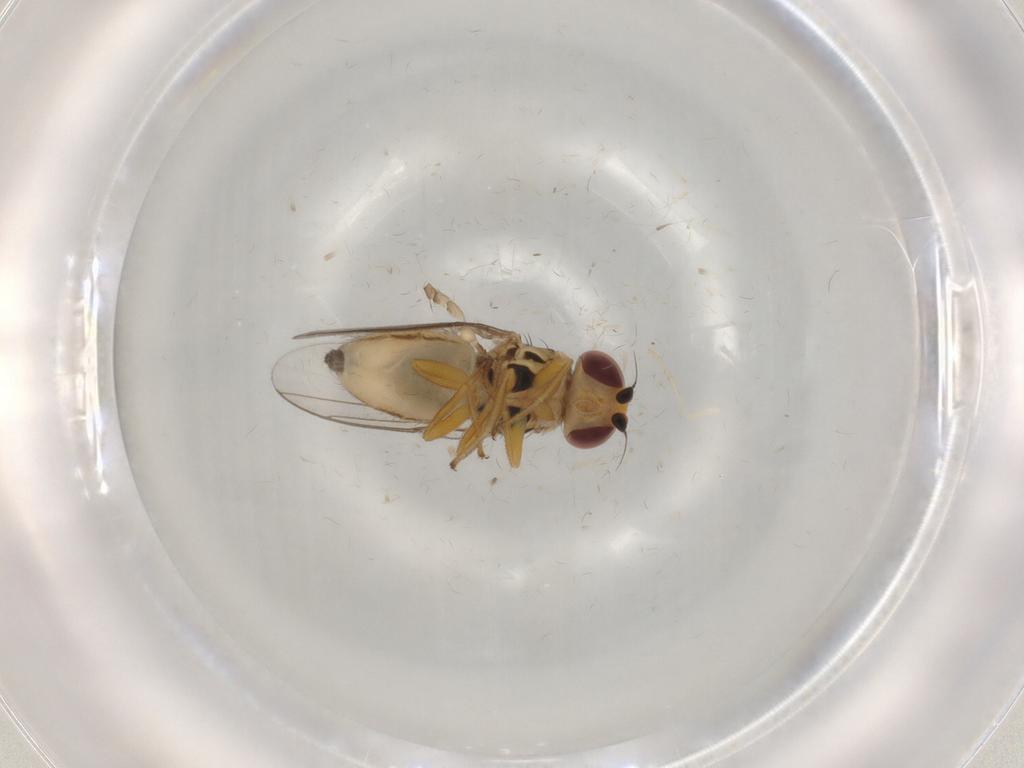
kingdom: Animalia
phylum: Arthropoda
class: Insecta
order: Diptera
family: Chloropidae
